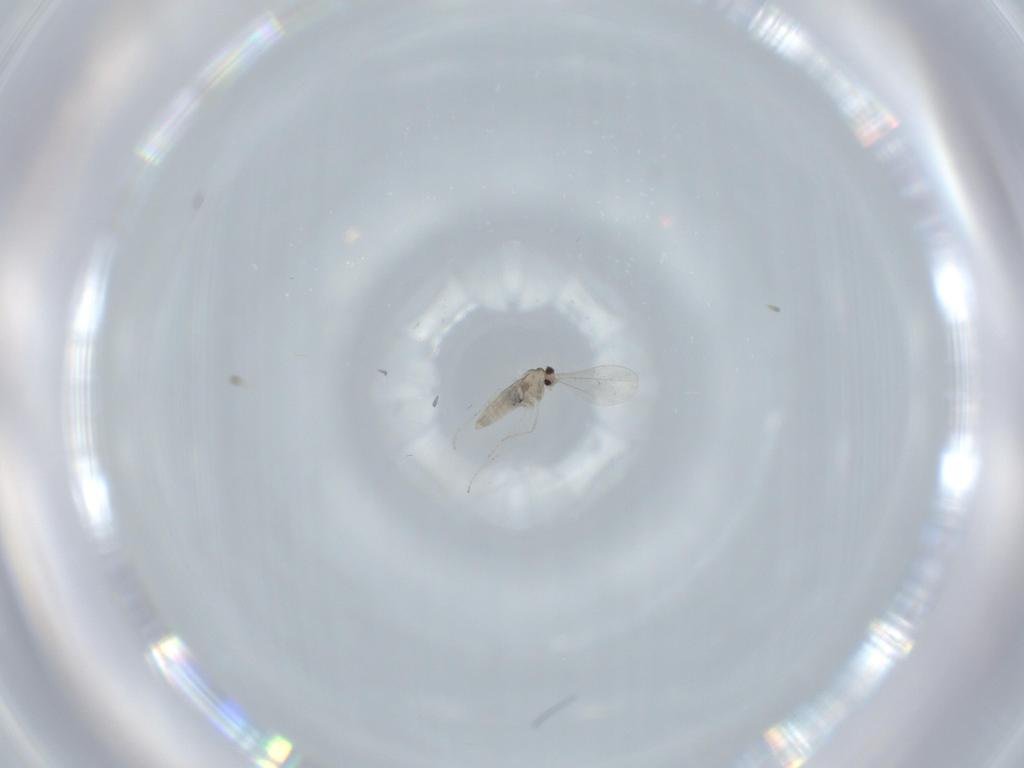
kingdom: Animalia
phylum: Arthropoda
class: Insecta
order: Diptera
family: Cecidomyiidae
